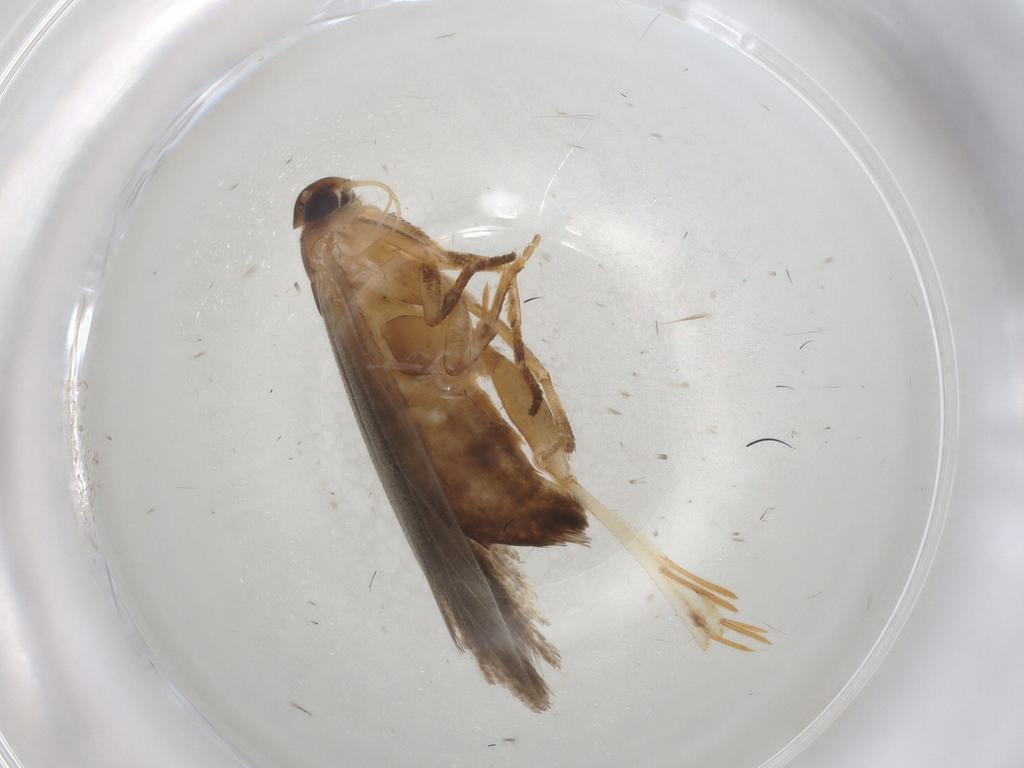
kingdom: Animalia
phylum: Arthropoda
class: Insecta
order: Lepidoptera
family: Gelechiidae
